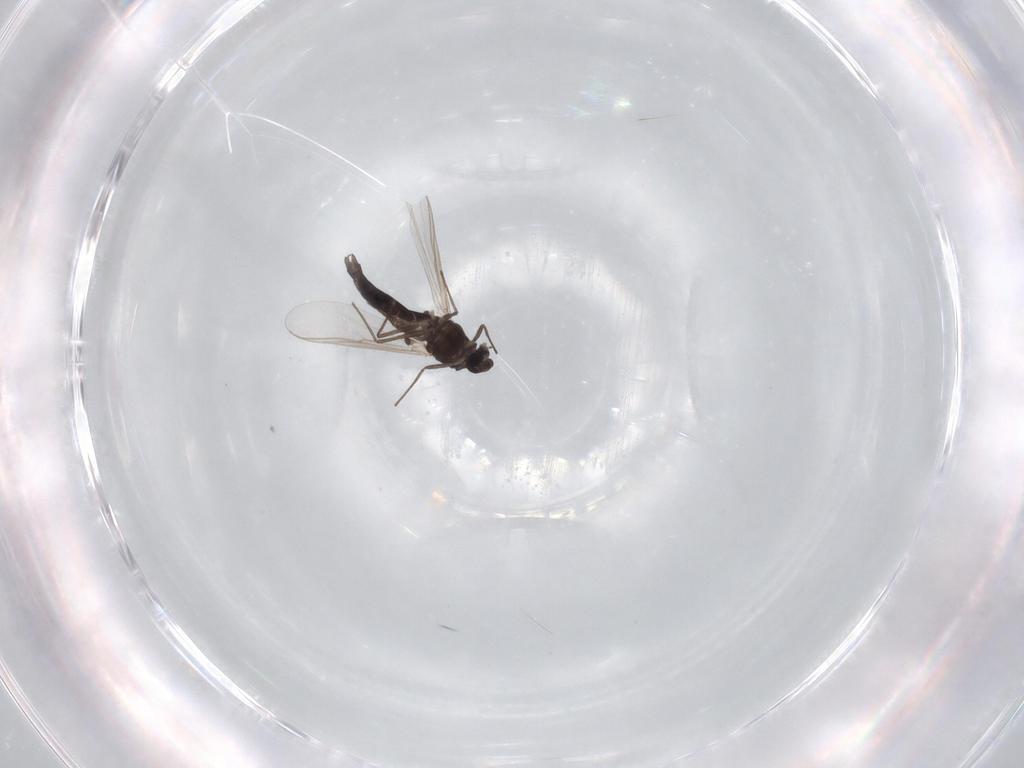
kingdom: Animalia
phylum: Arthropoda
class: Insecta
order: Diptera
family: Chironomidae
